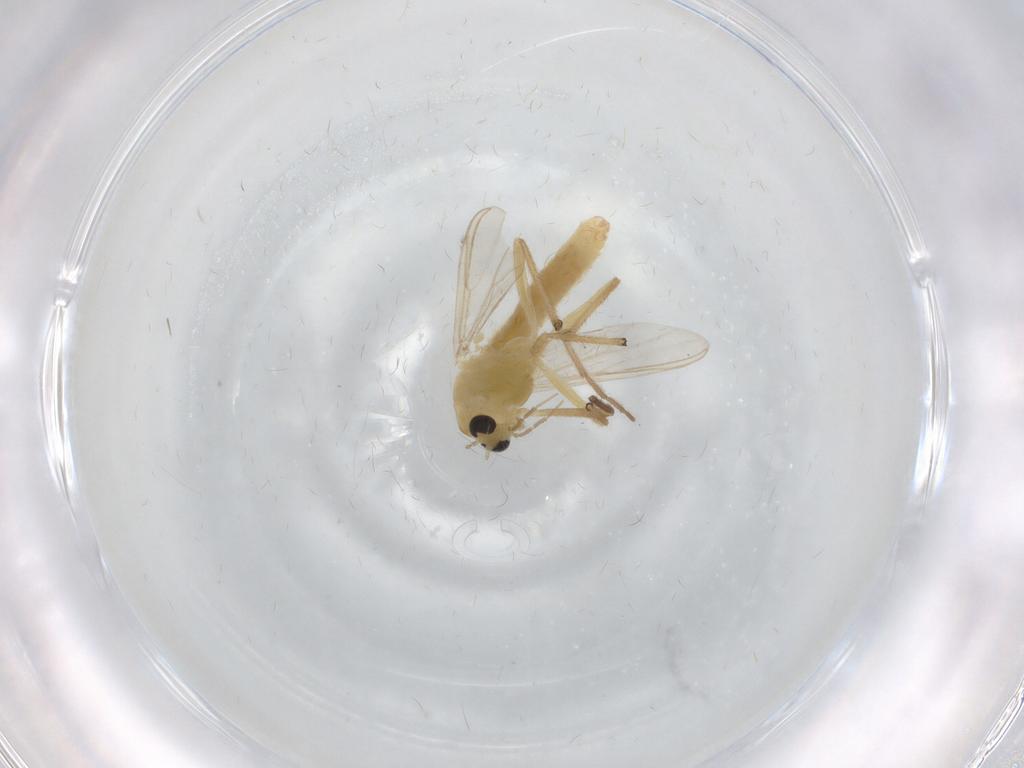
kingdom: Animalia
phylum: Arthropoda
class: Insecta
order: Diptera
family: Chironomidae
